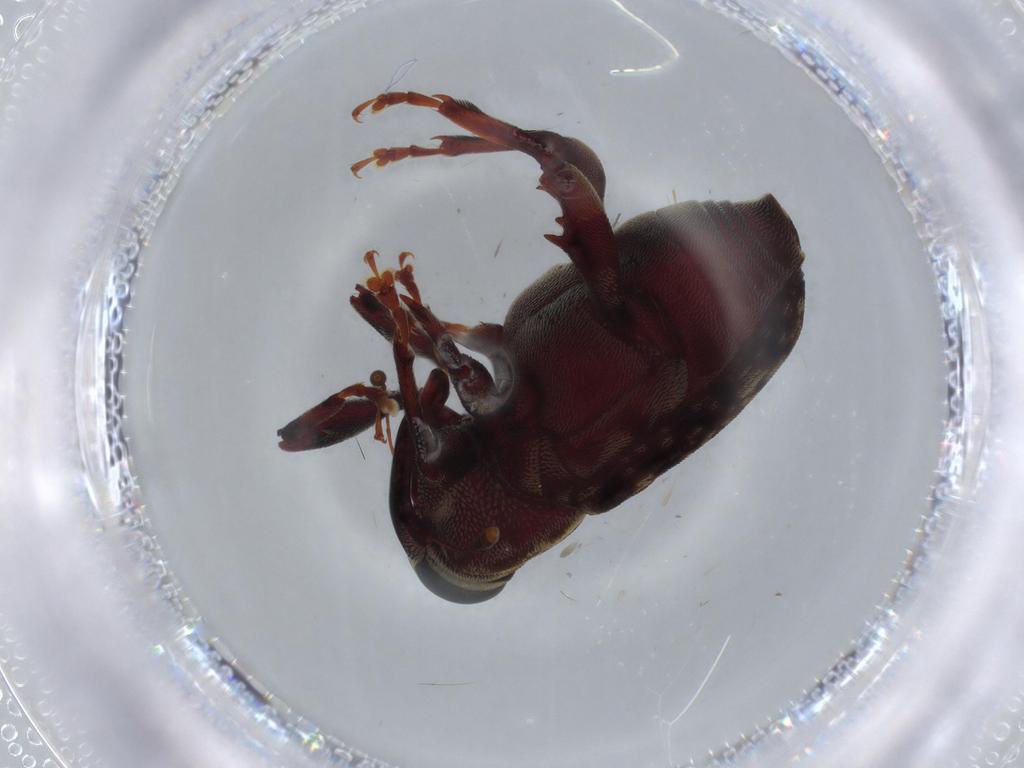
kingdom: Animalia
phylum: Arthropoda
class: Insecta
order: Coleoptera
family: Curculionidae
